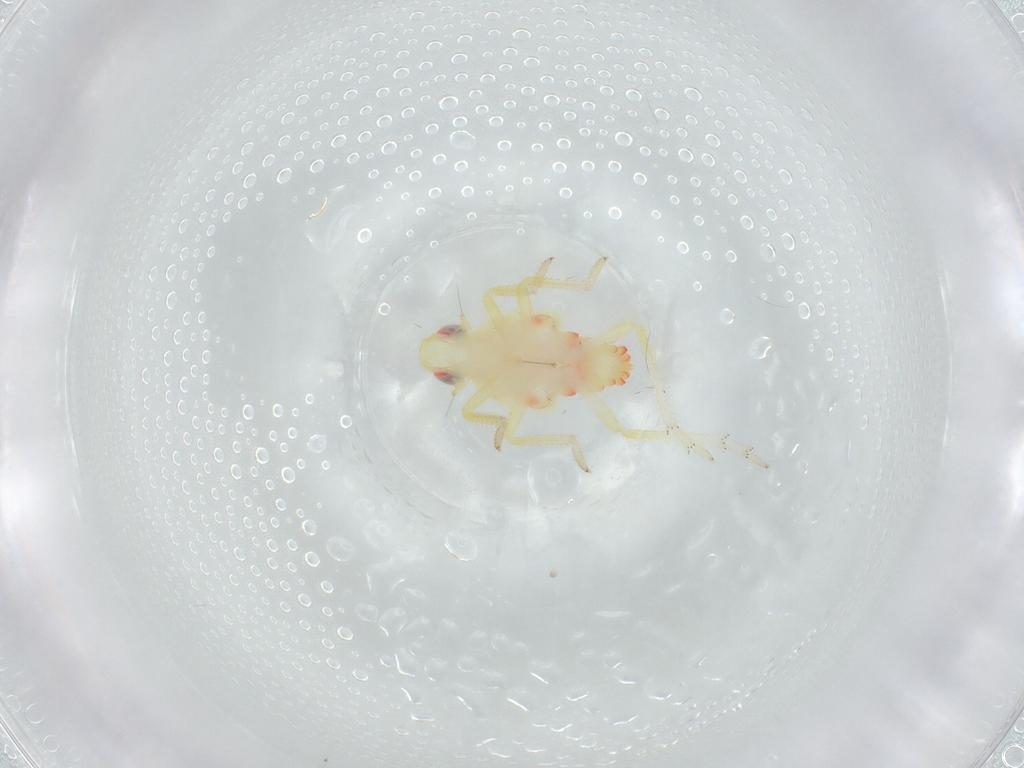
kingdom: Animalia
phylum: Arthropoda
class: Insecta
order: Hemiptera
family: Tropiduchidae
